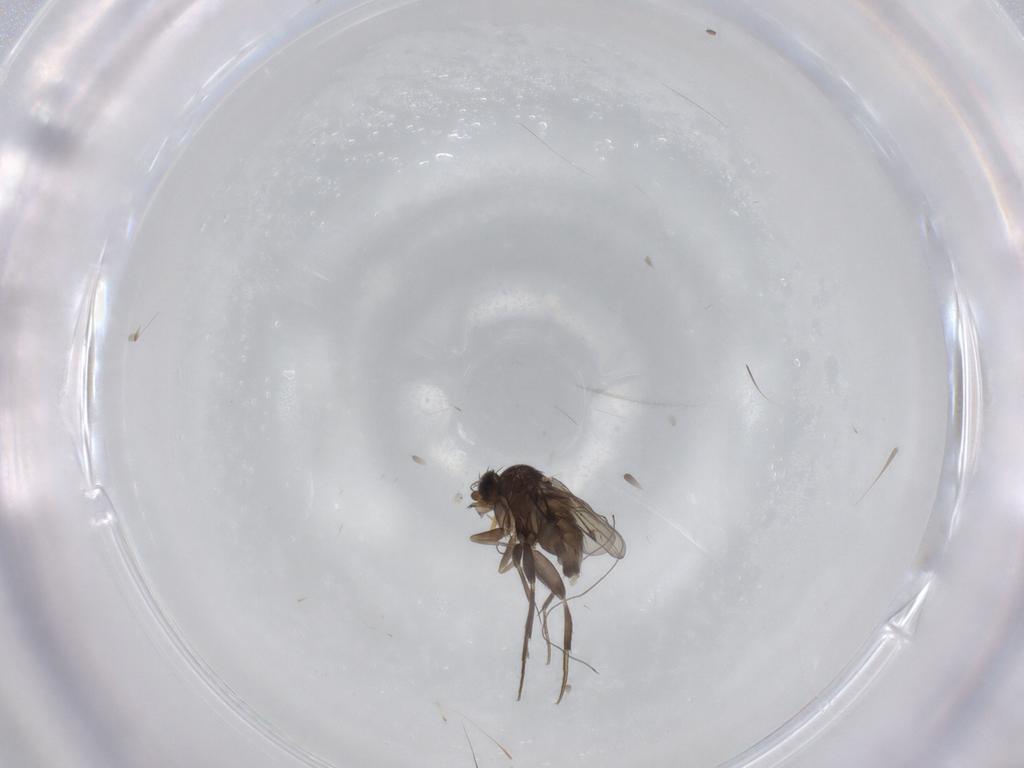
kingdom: Animalia
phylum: Arthropoda
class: Insecta
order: Diptera
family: Phoridae
